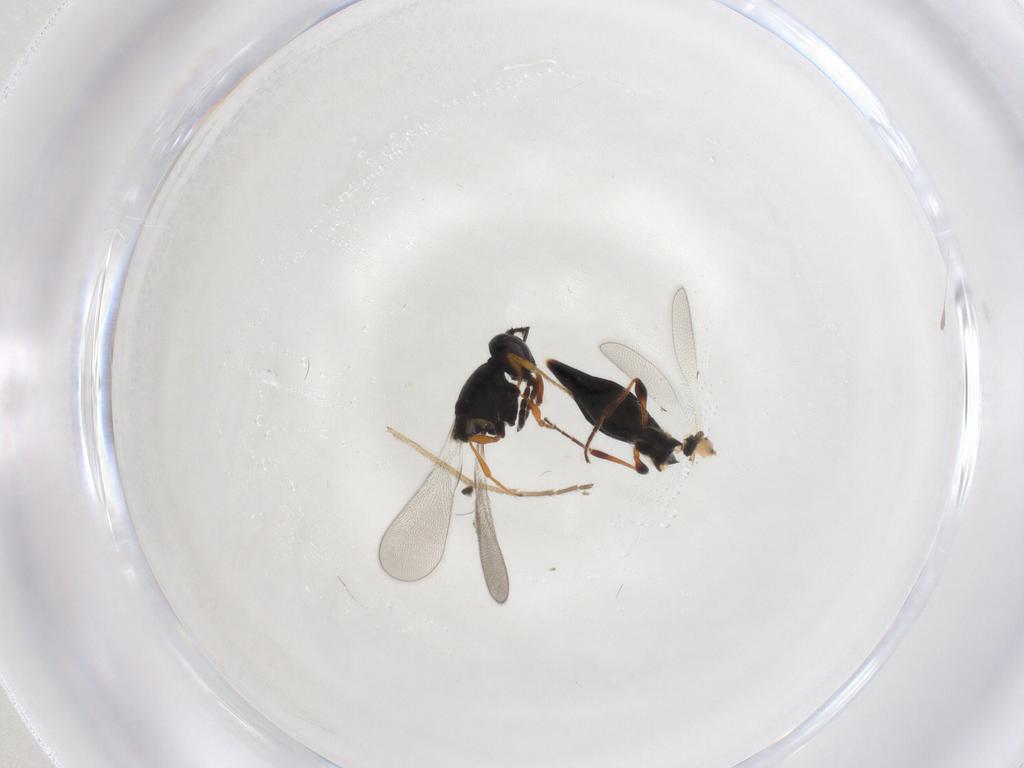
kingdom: Animalia
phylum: Arthropoda
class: Insecta
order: Hymenoptera
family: Platygastridae
